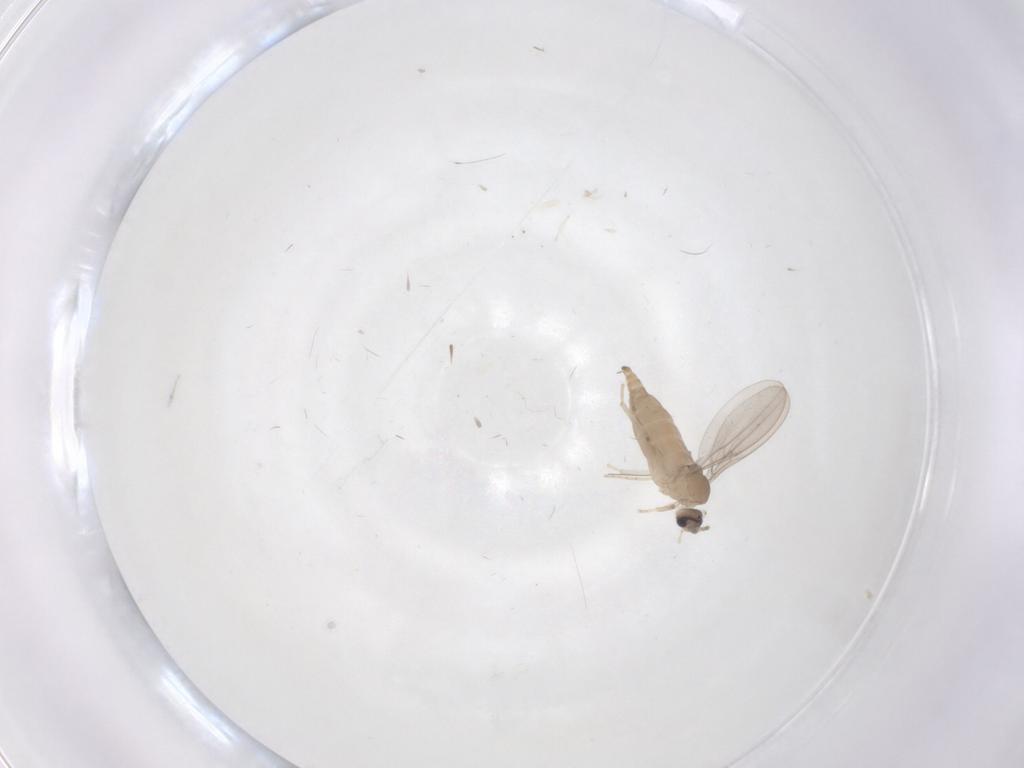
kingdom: Animalia
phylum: Arthropoda
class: Insecta
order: Diptera
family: Cecidomyiidae
